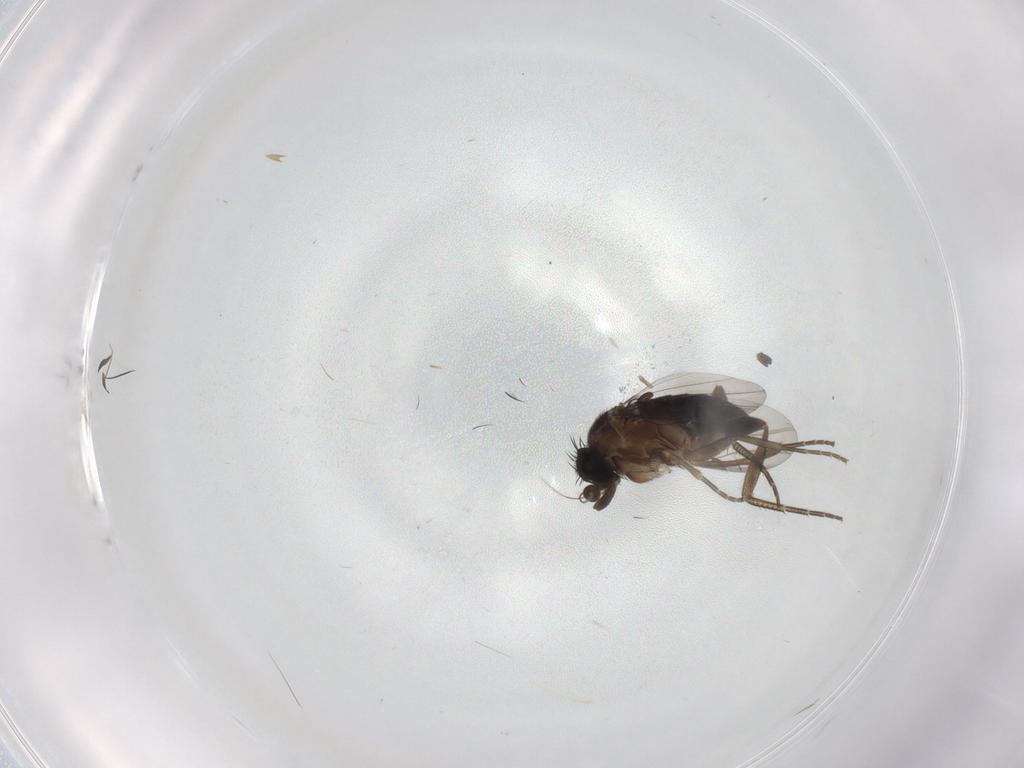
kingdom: Animalia
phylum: Arthropoda
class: Insecta
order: Diptera
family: Phoridae
